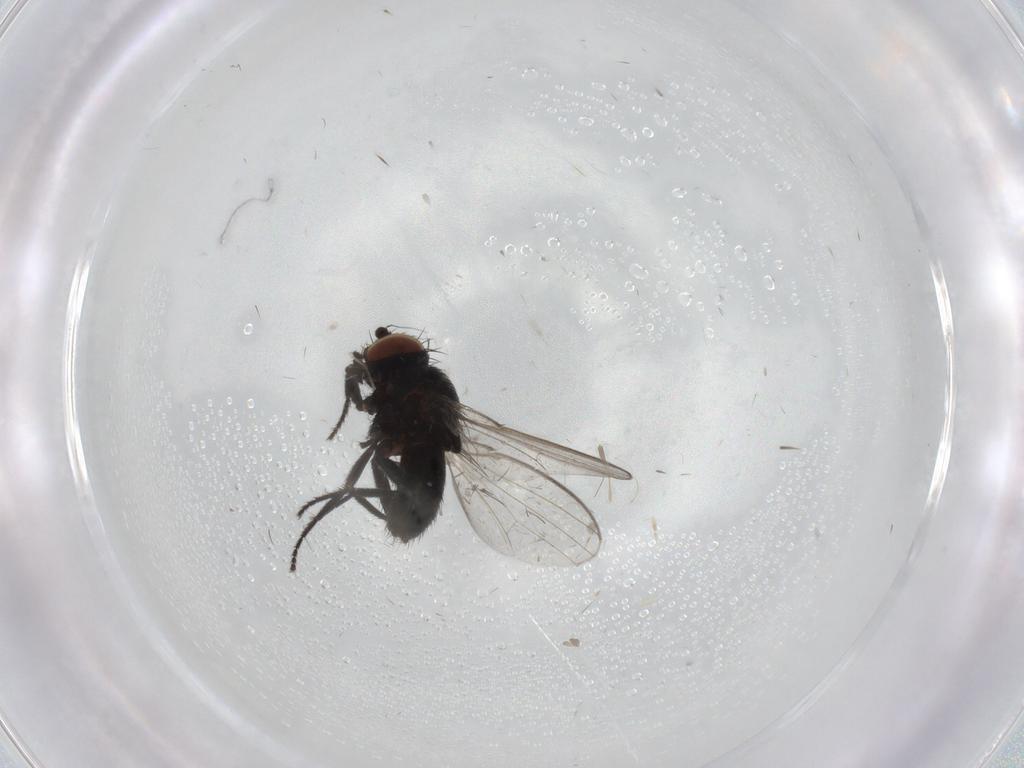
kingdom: Animalia
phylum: Arthropoda
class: Insecta
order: Diptera
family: Milichiidae
